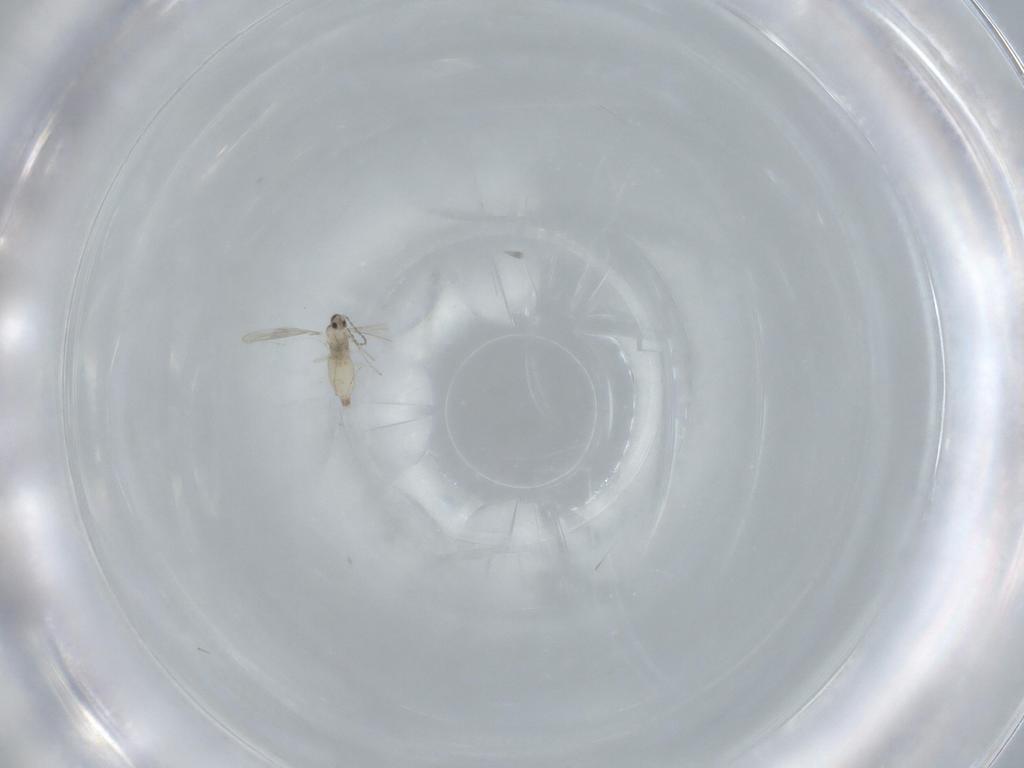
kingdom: Animalia
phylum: Arthropoda
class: Insecta
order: Diptera
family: Cecidomyiidae
